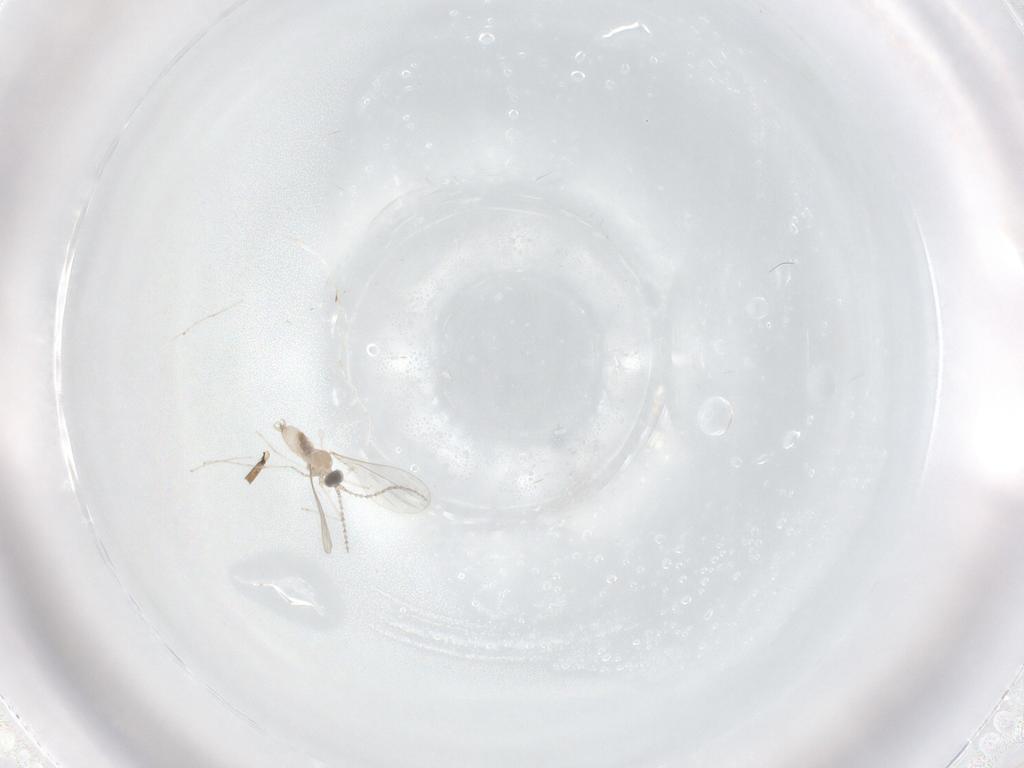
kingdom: Animalia
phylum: Arthropoda
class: Insecta
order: Diptera
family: Cecidomyiidae
